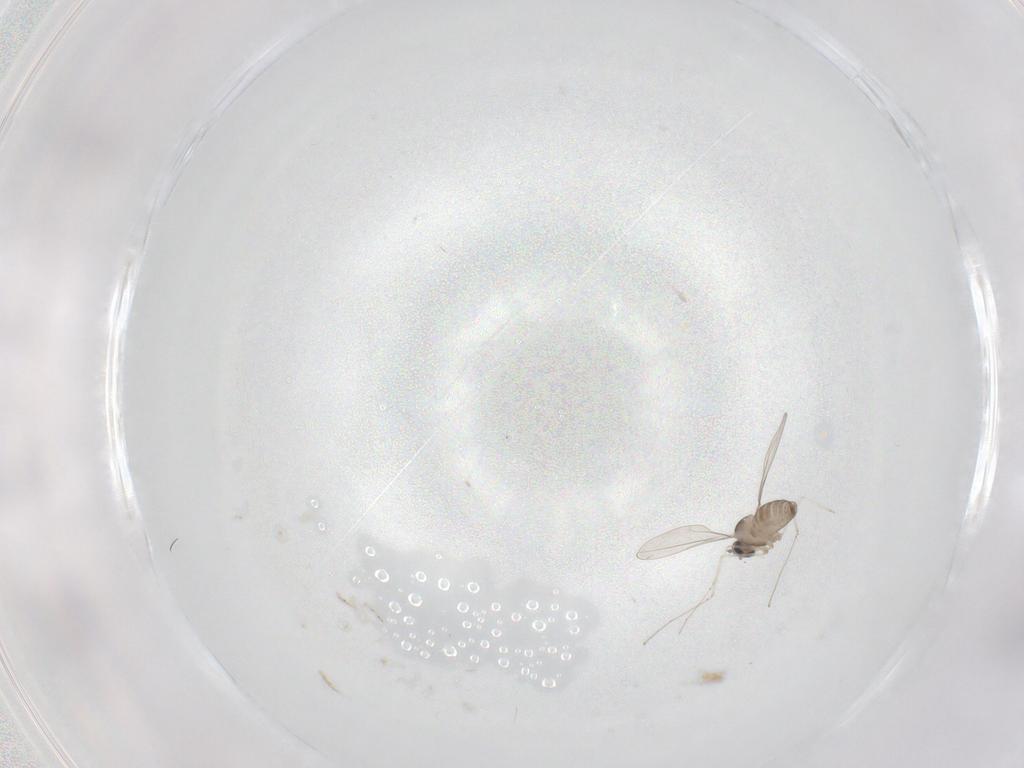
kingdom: Animalia
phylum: Arthropoda
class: Insecta
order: Diptera
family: Cecidomyiidae
